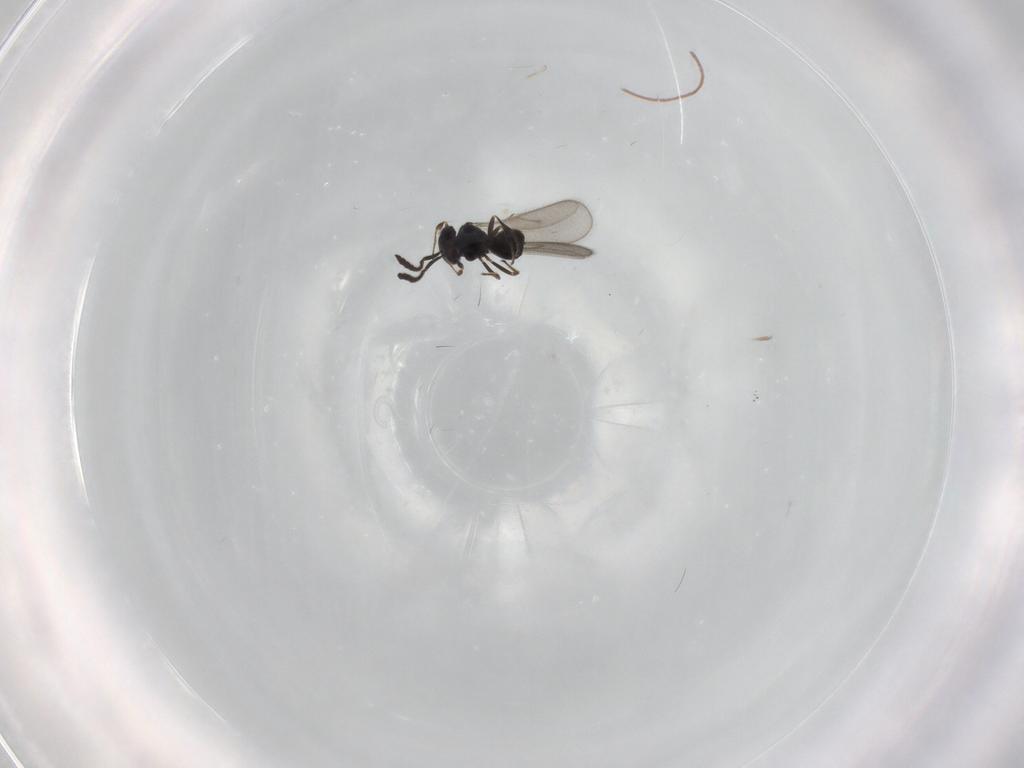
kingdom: Animalia
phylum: Arthropoda
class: Insecta
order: Hymenoptera
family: Scelionidae
